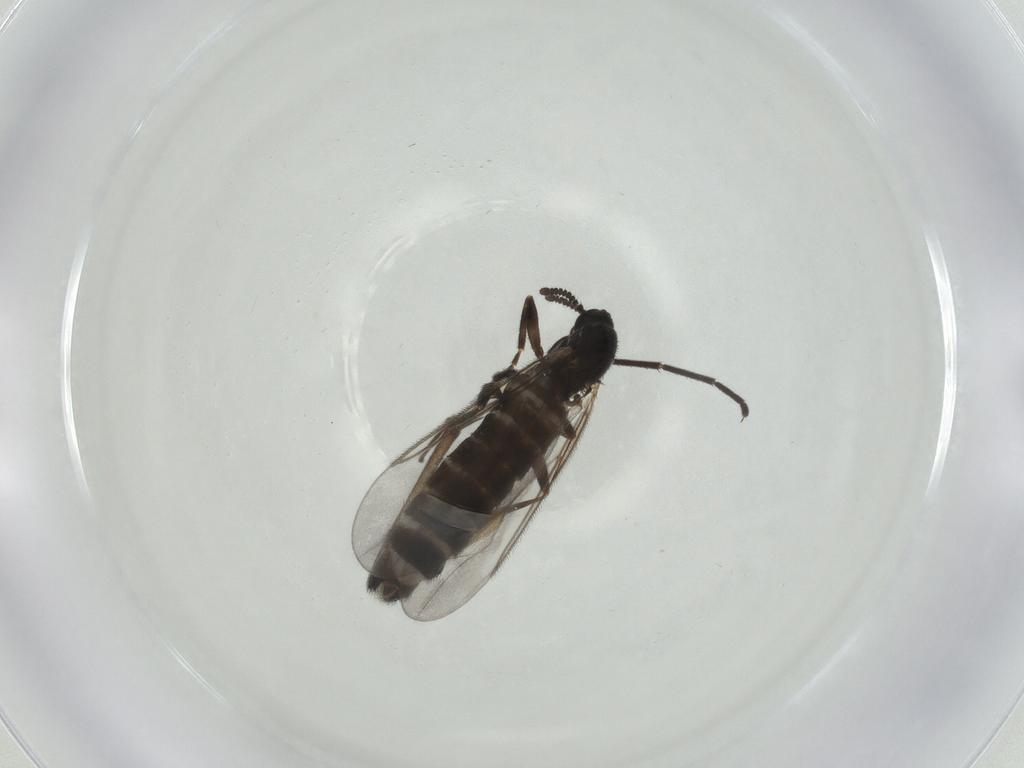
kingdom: Animalia
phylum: Arthropoda
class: Insecta
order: Diptera
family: Scatopsidae
